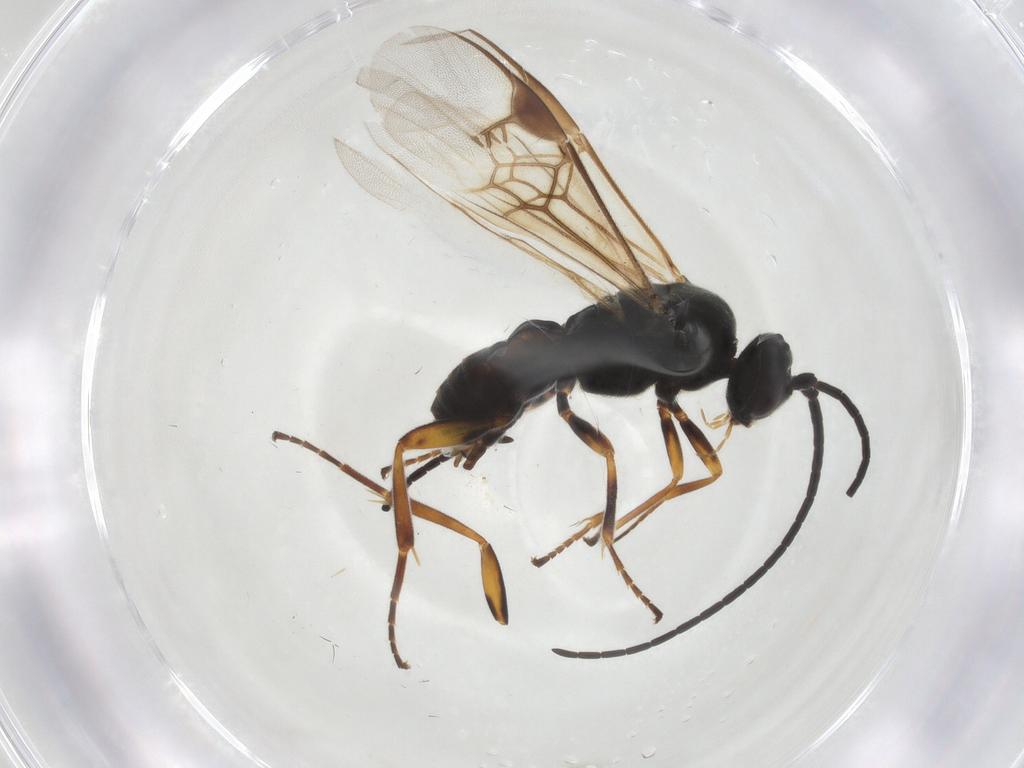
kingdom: Animalia
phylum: Arthropoda
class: Insecta
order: Hymenoptera
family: Braconidae
